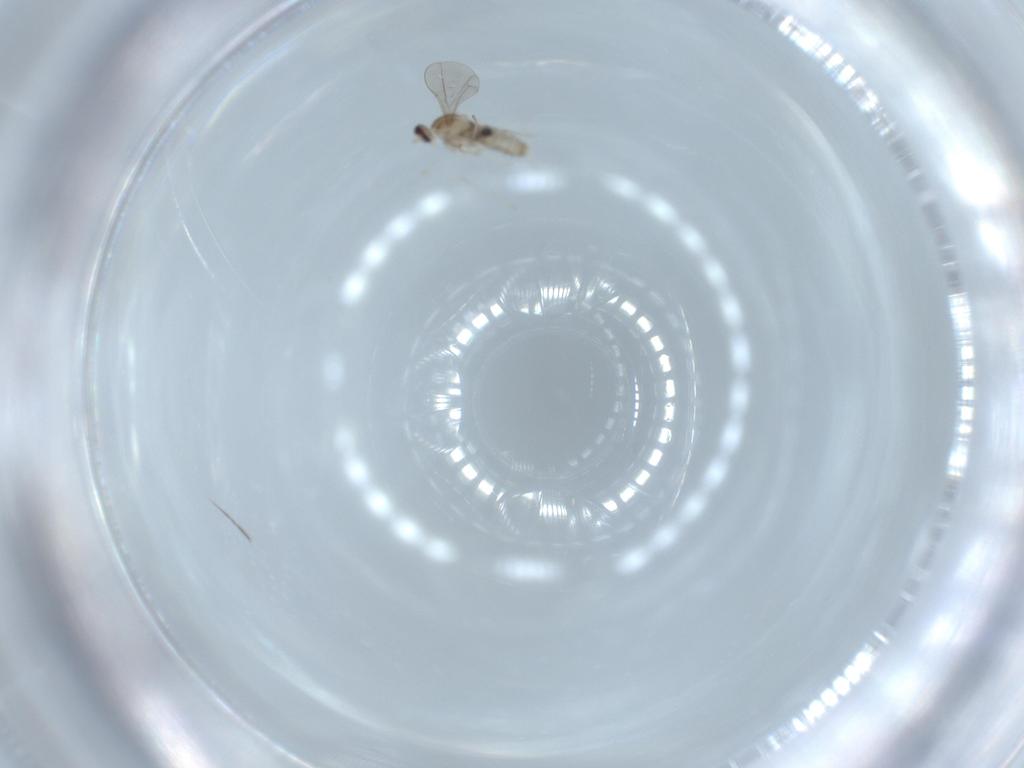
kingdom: Animalia
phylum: Arthropoda
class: Insecta
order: Diptera
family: Cecidomyiidae
